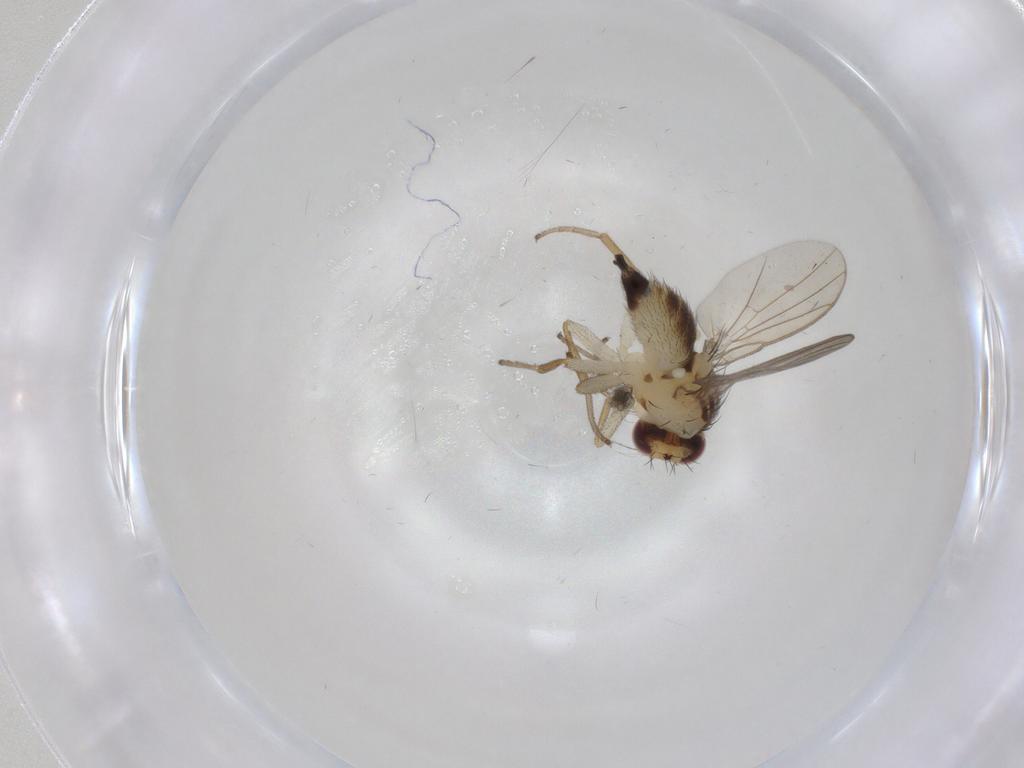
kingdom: Animalia
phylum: Arthropoda
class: Insecta
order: Diptera
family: Ceratopogonidae
